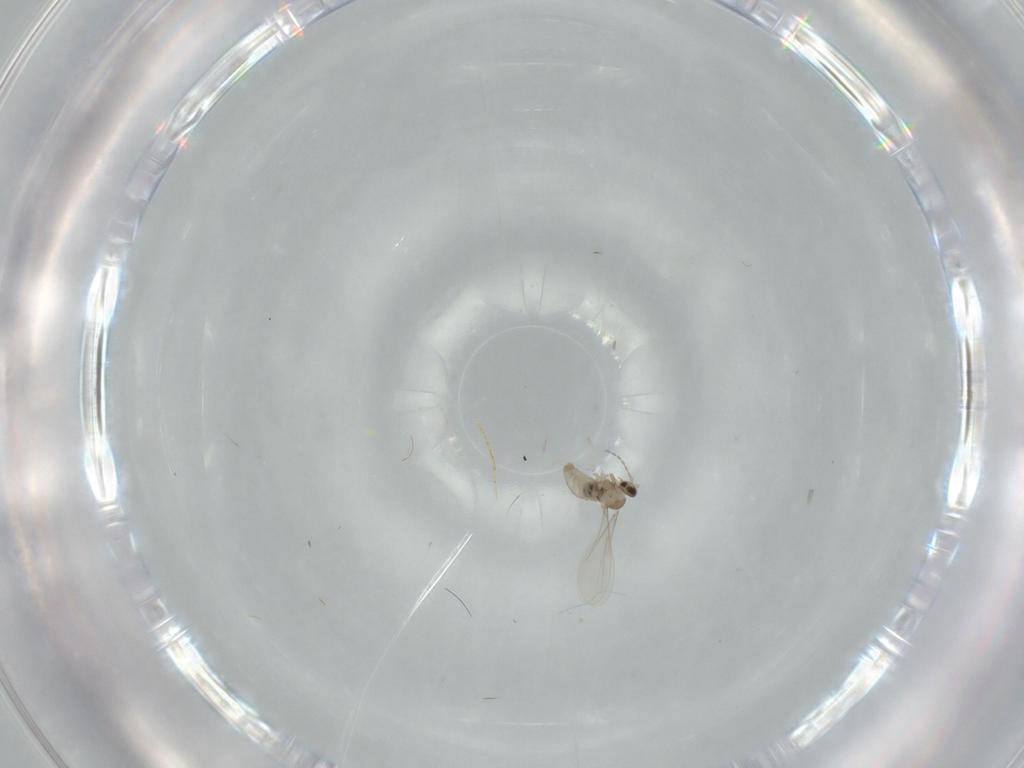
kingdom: Animalia
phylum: Arthropoda
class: Insecta
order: Diptera
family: Cecidomyiidae
